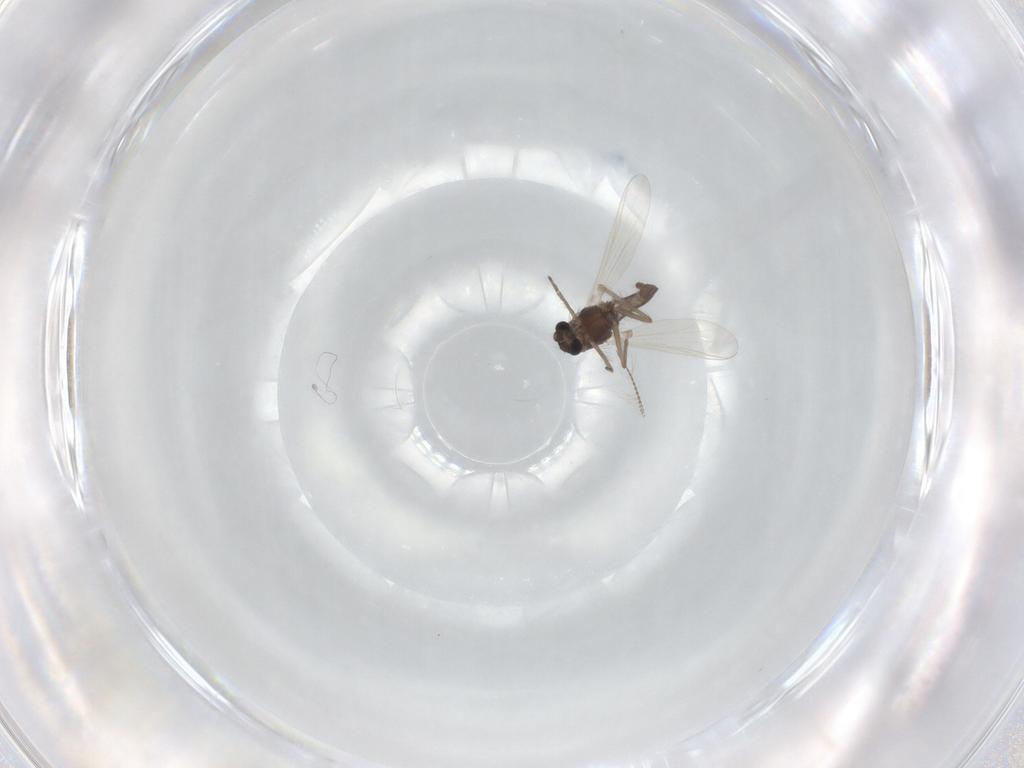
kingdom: Animalia
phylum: Arthropoda
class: Insecta
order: Diptera
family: Chironomidae
